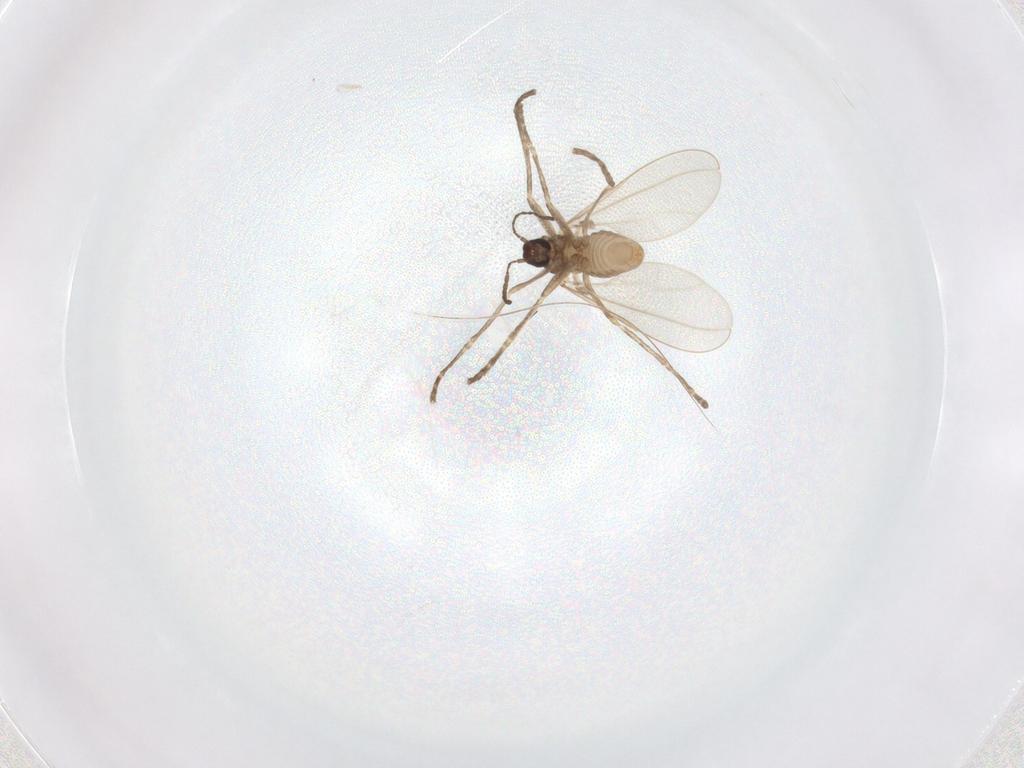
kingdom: Animalia
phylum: Arthropoda
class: Insecta
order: Diptera
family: Cecidomyiidae
